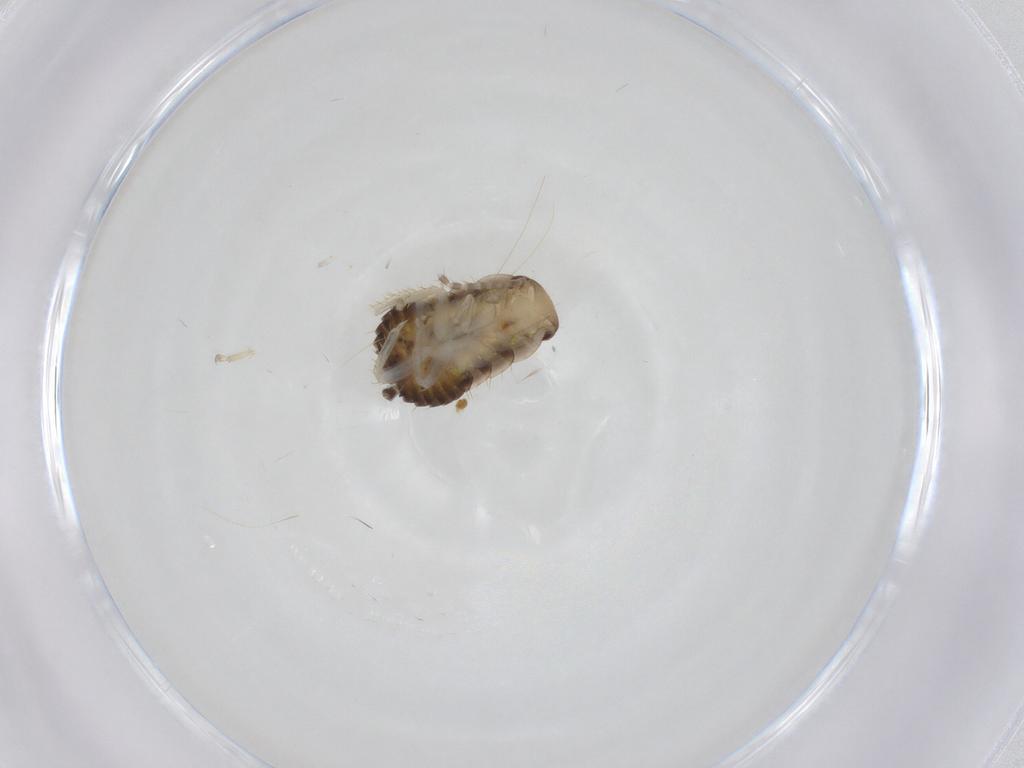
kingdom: Animalia
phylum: Arthropoda
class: Insecta
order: Blattodea
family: Ectobiidae
